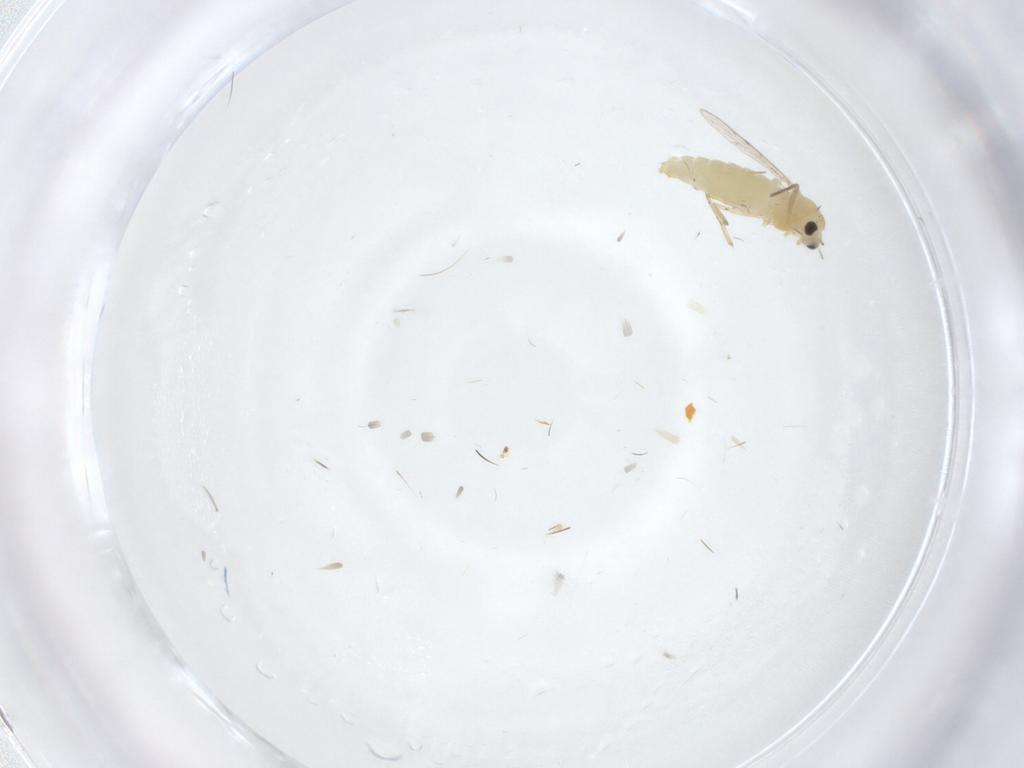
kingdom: Animalia
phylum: Arthropoda
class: Insecta
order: Diptera
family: Chironomidae
